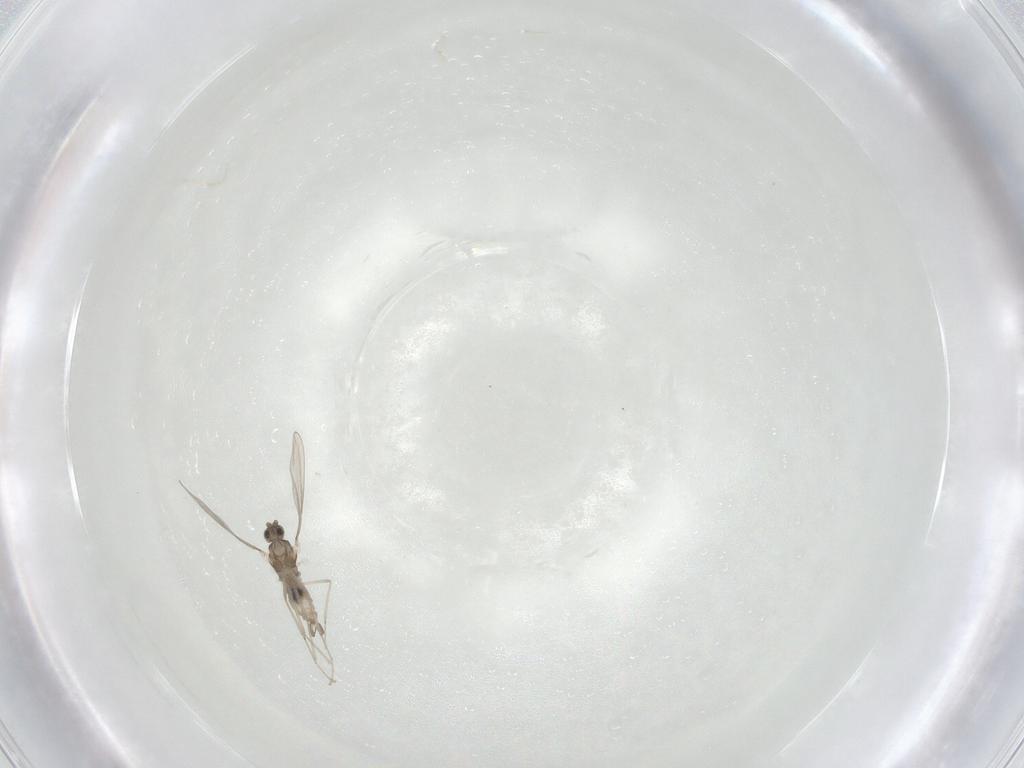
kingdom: Animalia
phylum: Arthropoda
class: Insecta
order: Diptera
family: Cecidomyiidae
